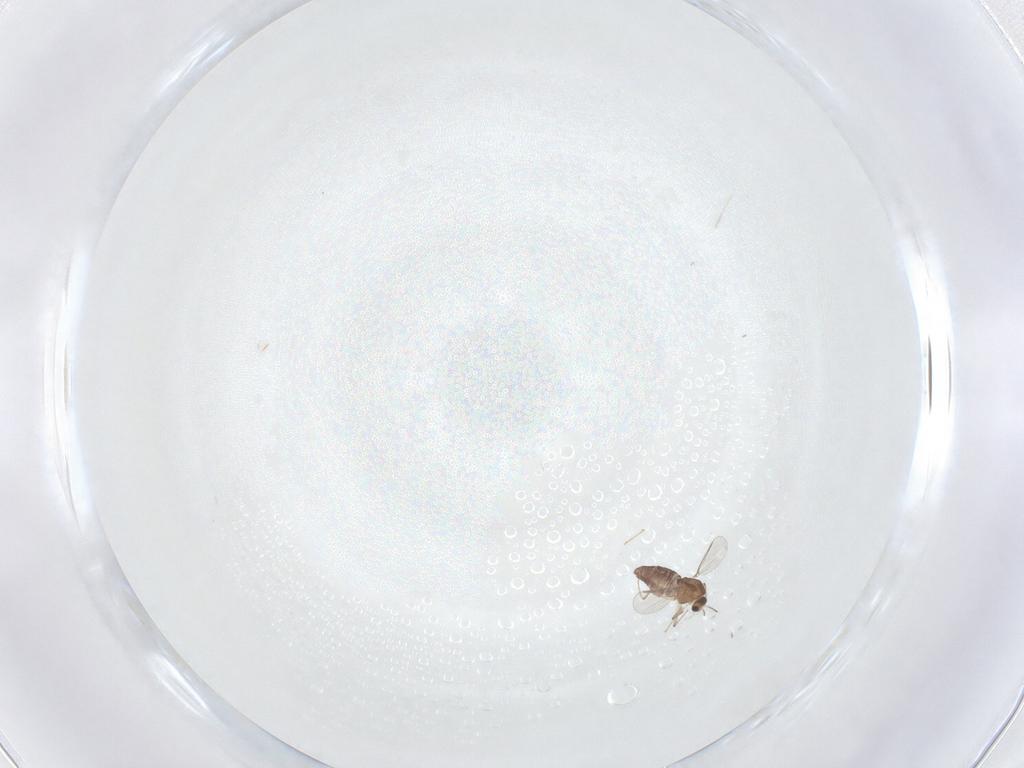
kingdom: Animalia
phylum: Arthropoda
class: Insecta
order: Diptera
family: Chironomidae
